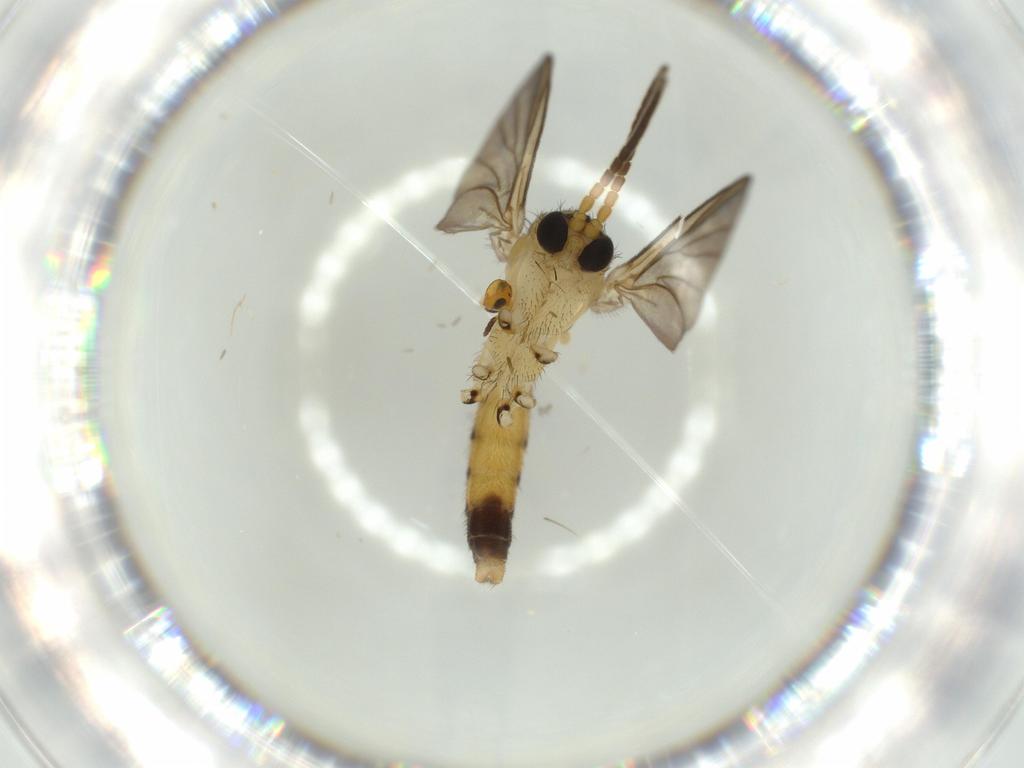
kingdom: Animalia
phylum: Arthropoda
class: Insecta
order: Diptera
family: Sciaridae
